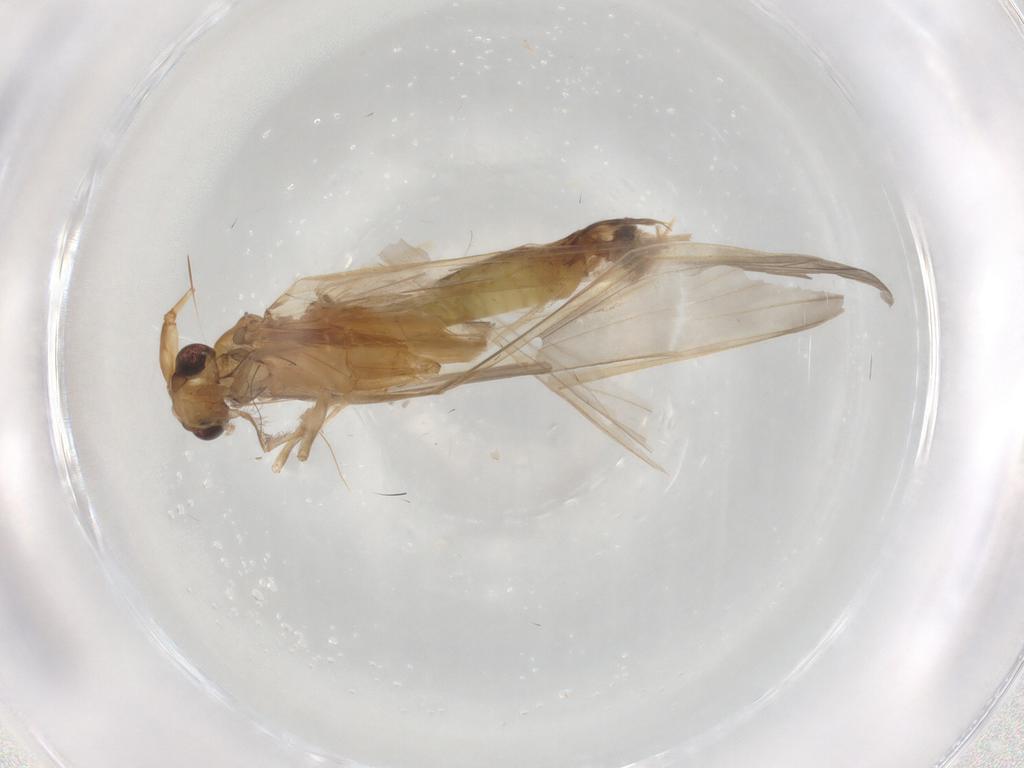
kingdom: Animalia
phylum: Arthropoda
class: Insecta
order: Trichoptera
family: Leptoceridae
